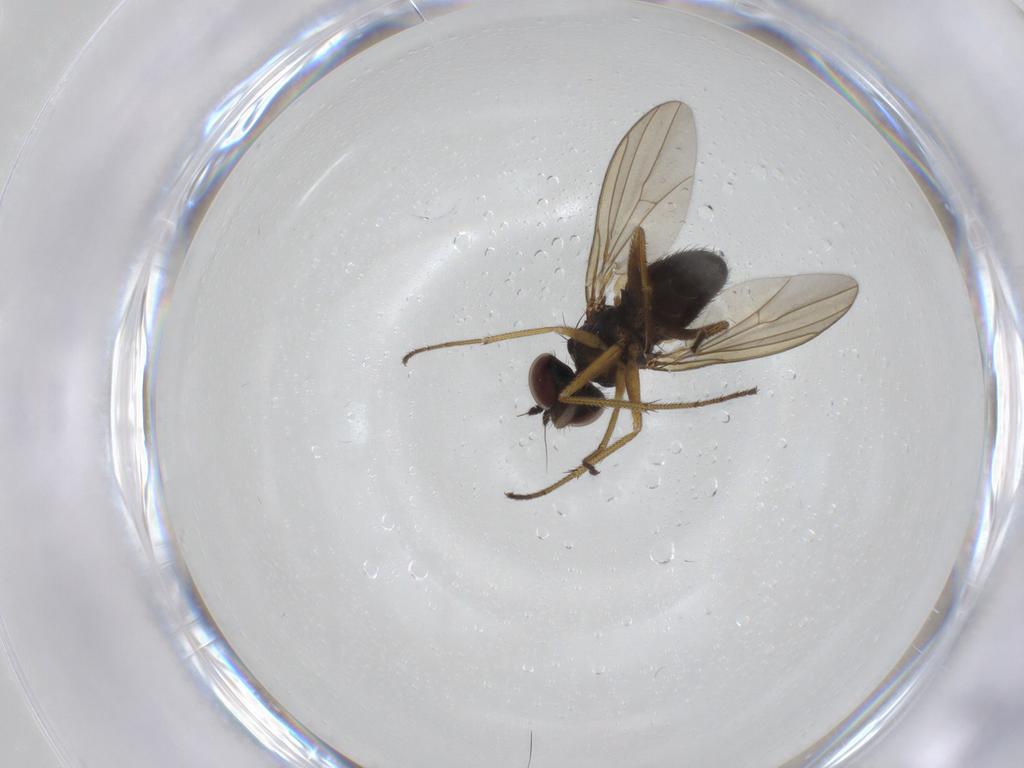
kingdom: Animalia
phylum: Arthropoda
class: Insecta
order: Diptera
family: Dolichopodidae
